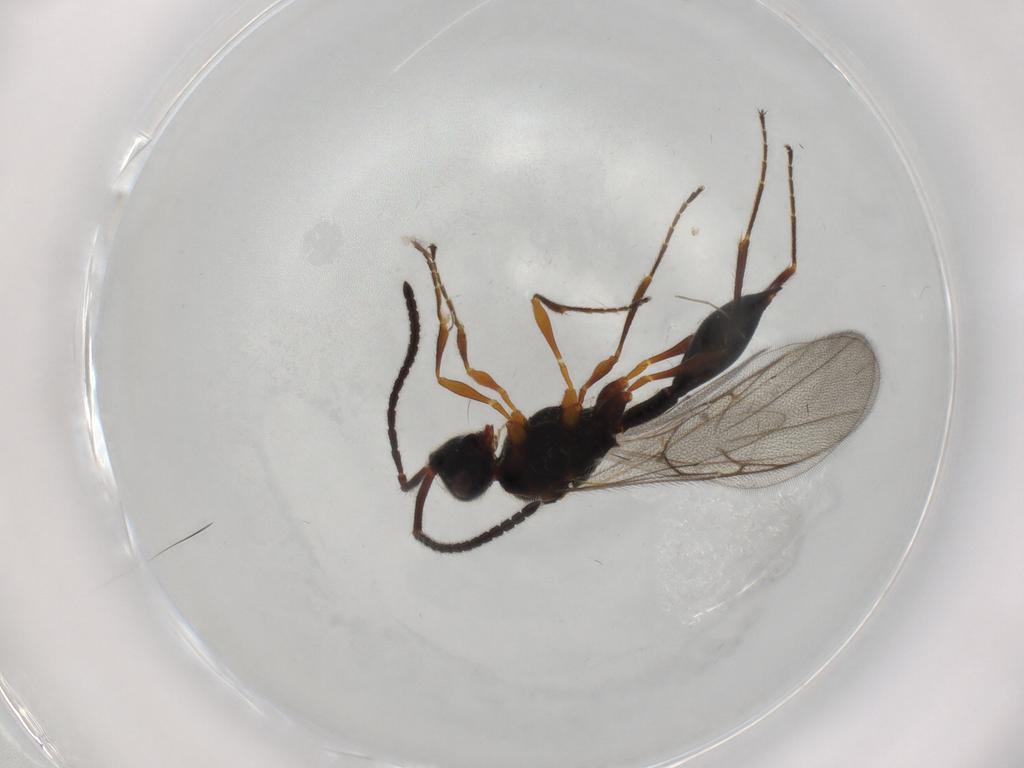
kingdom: Animalia
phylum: Arthropoda
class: Insecta
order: Hymenoptera
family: Diapriidae
